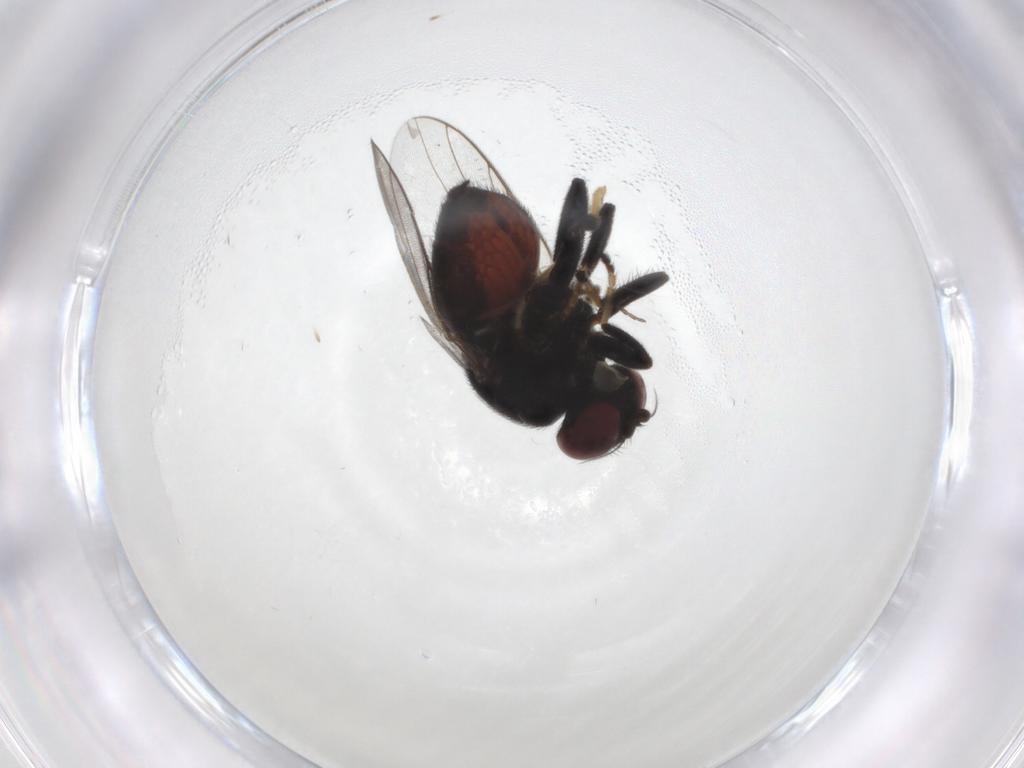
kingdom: Animalia
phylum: Arthropoda
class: Insecta
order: Diptera
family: Chloropidae
